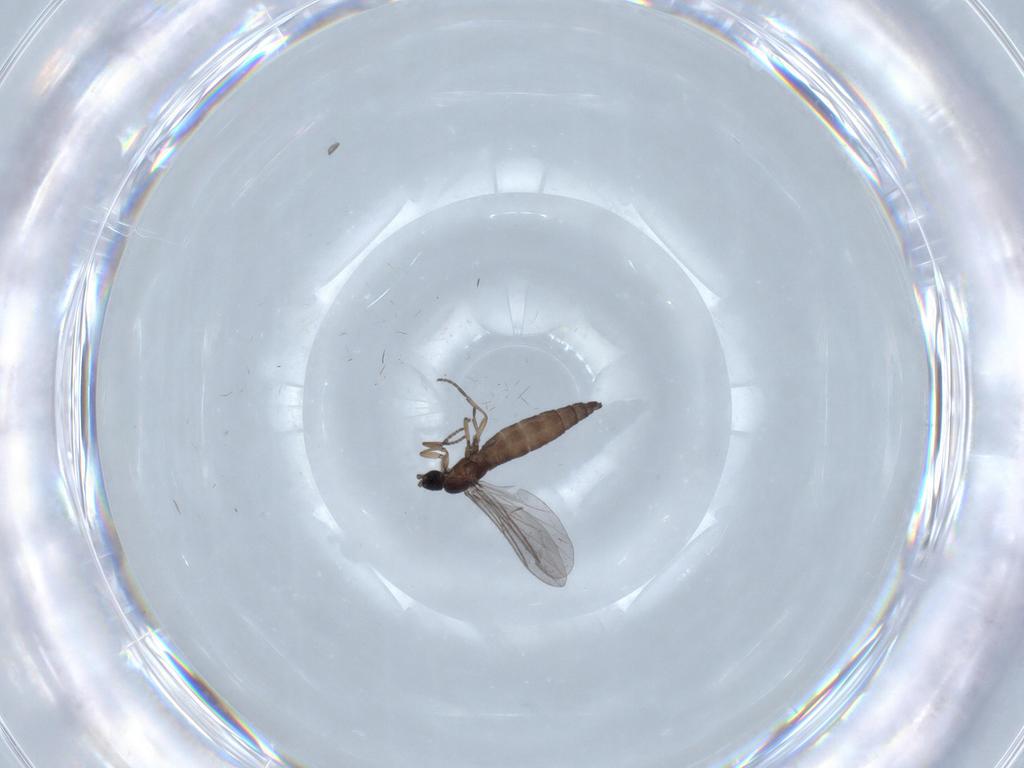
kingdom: Animalia
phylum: Arthropoda
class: Insecta
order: Diptera
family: Sciaridae
